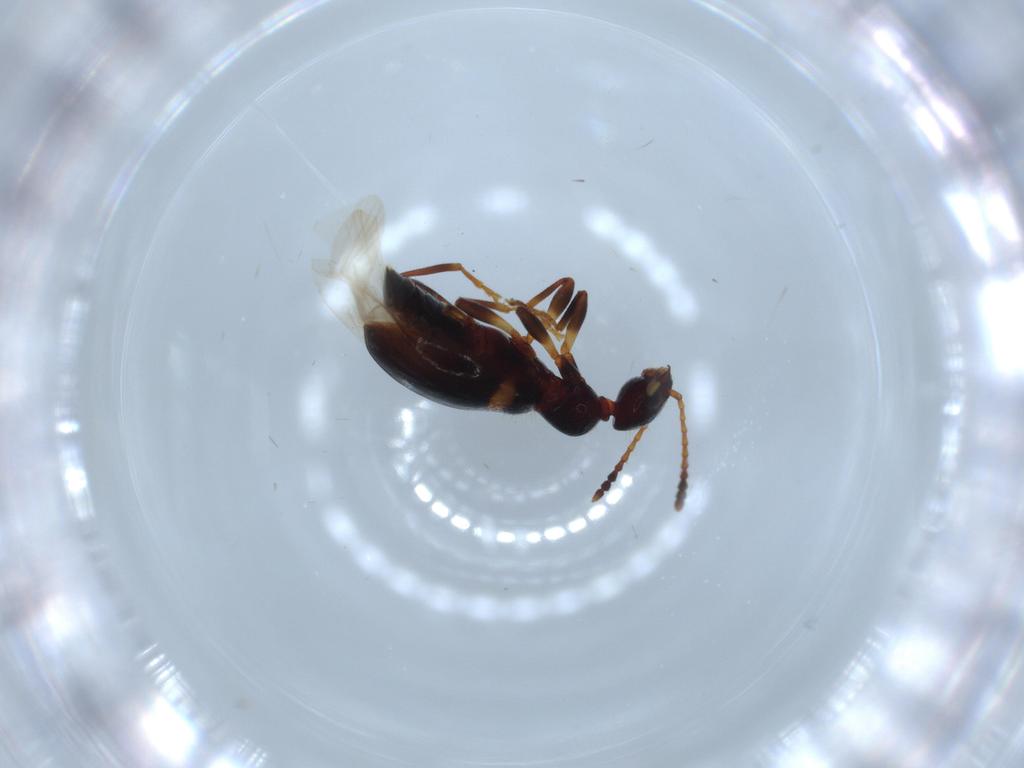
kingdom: Animalia
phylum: Arthropoda
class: Insecta
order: Coleoptera
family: Anthicidae
